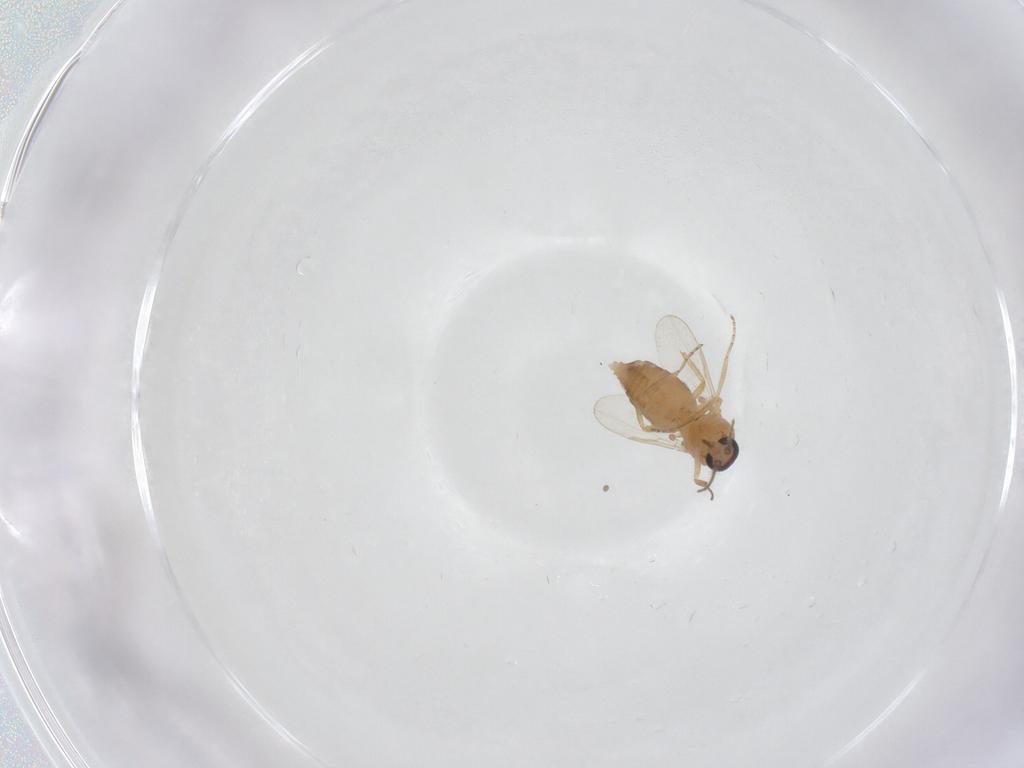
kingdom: Animalia
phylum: Arthropoda
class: Insecta
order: Diptera
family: Ceratopogonidae
